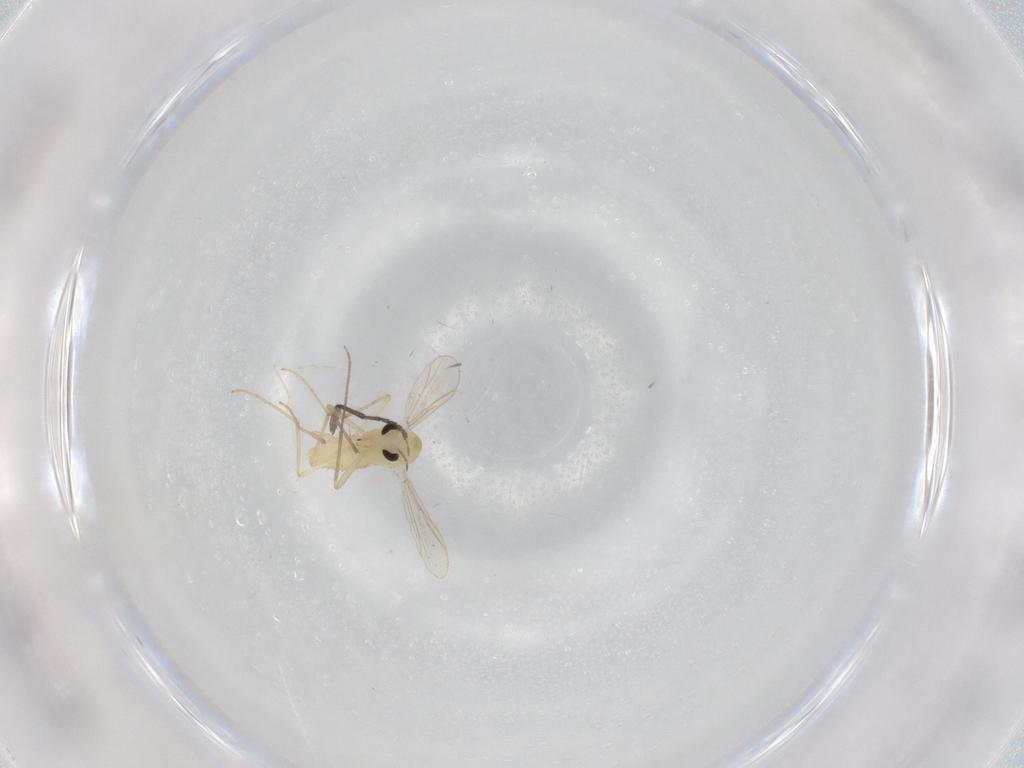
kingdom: Animalia
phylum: Arthropoda
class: Insecta
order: Diptera
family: Chironomidae
